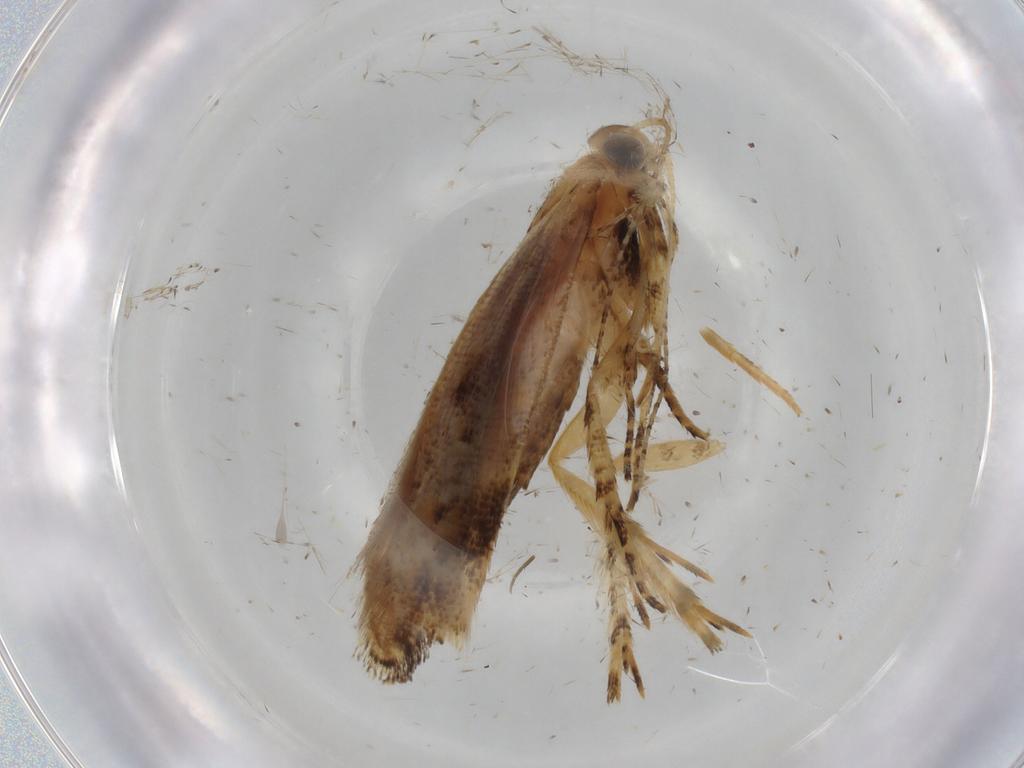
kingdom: Animalia
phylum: Arthropoda
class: Insecta
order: Lepidoptera
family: Gelechiidae
